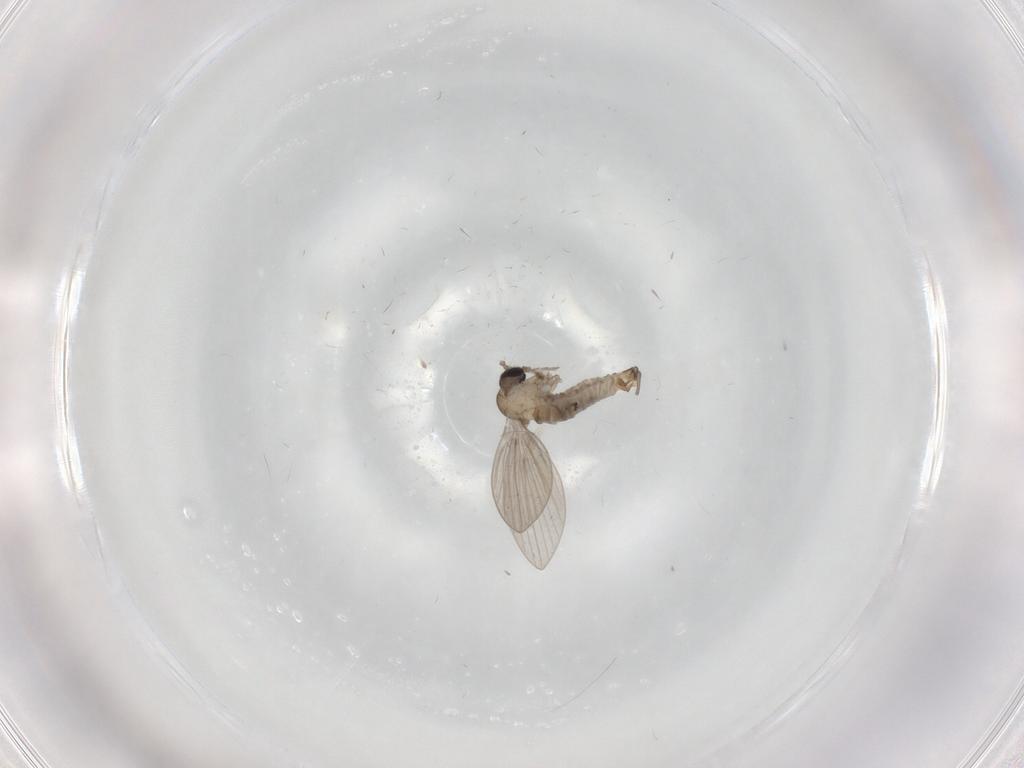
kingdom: Animalia
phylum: Arthropoda
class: Insecta
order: Diptera
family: Psychodidae
